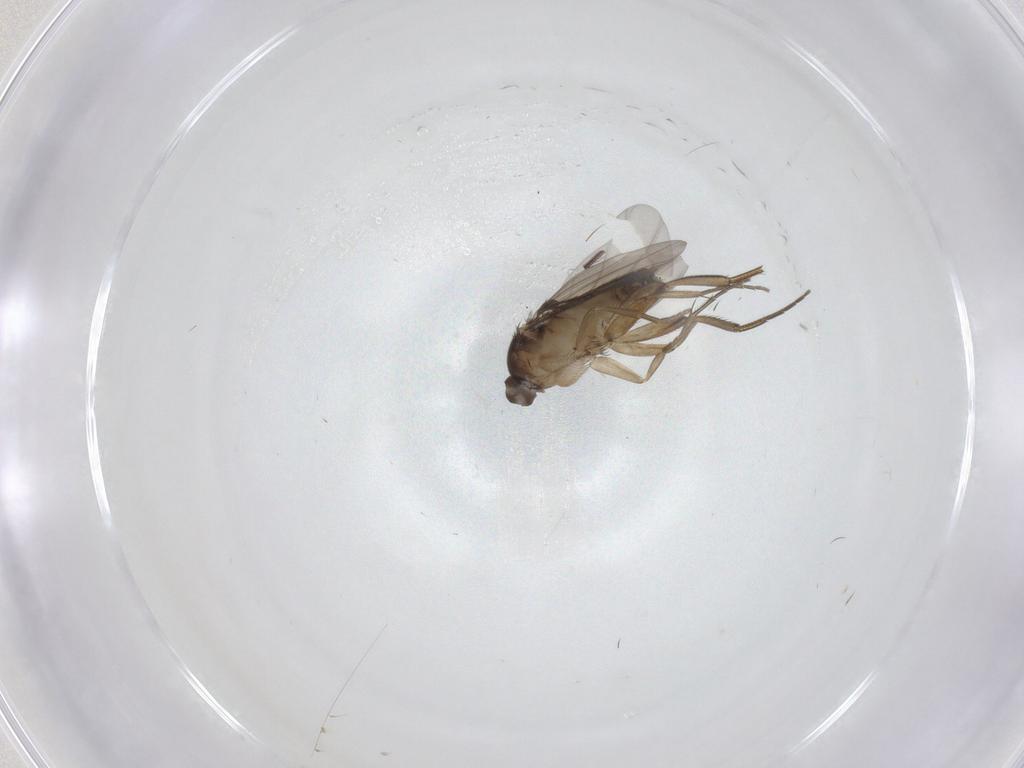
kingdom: Animalia
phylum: Arthropoda
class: Insecta
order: Diptera
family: Phoridae
